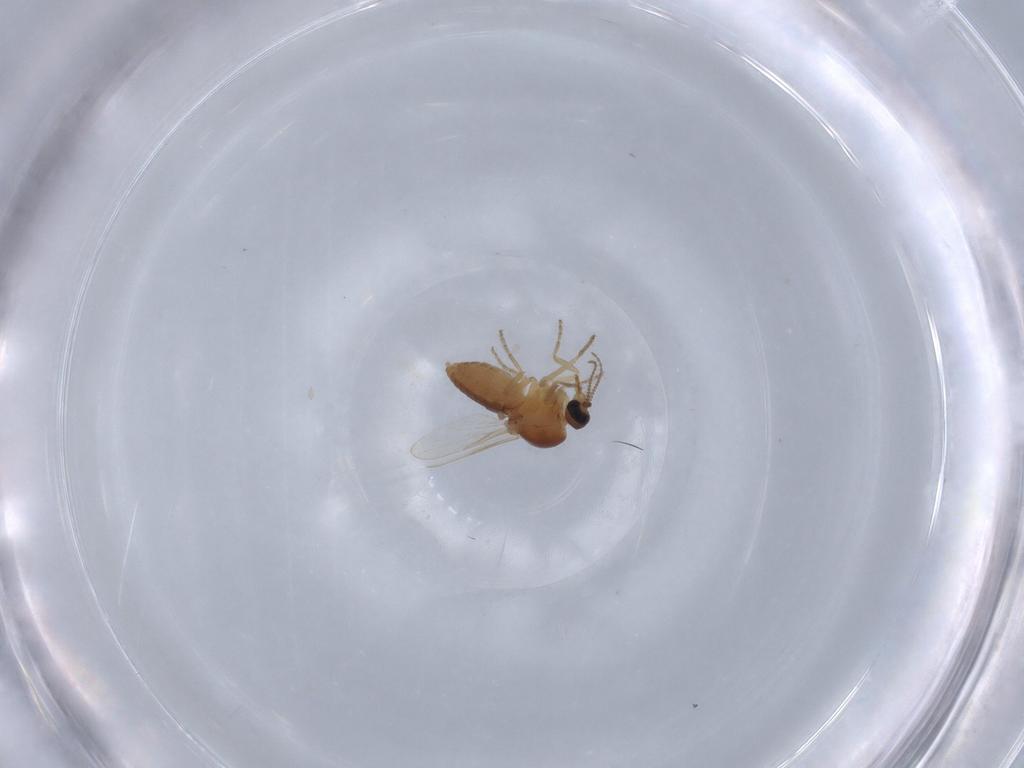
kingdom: Animalia
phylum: Arthropoda
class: Insecta
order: Diptera
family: Ceratopogonidae
